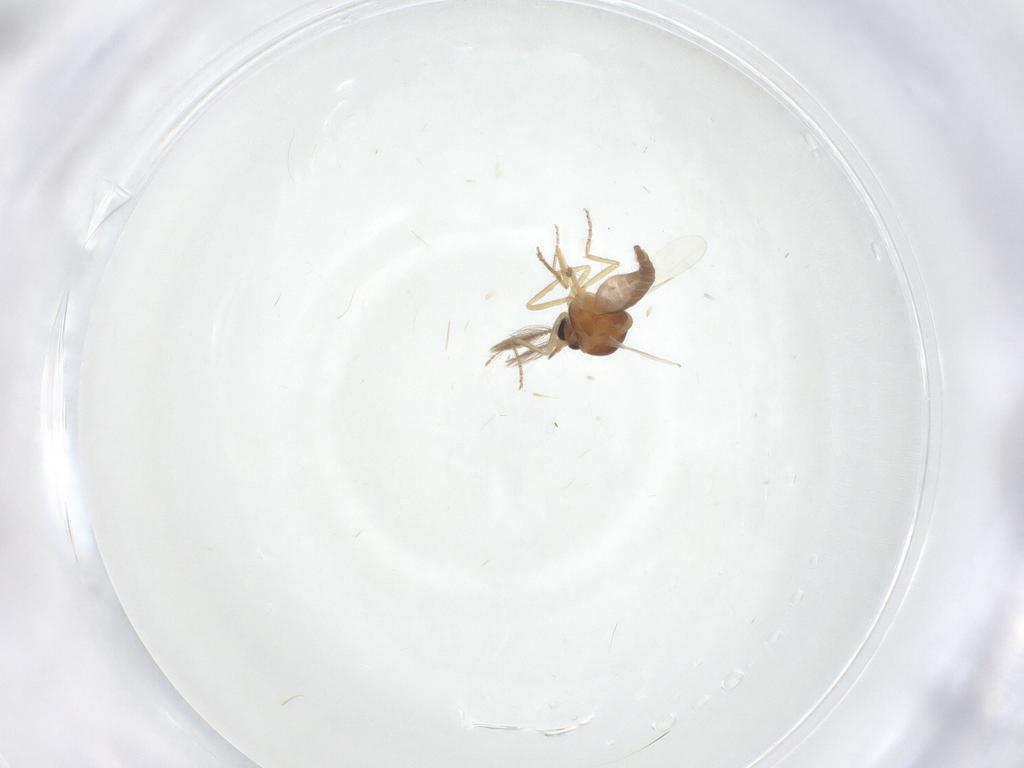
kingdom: Animalia
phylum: Arthropoda
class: Insecta
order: Diptera
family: Ceratopogonidae
